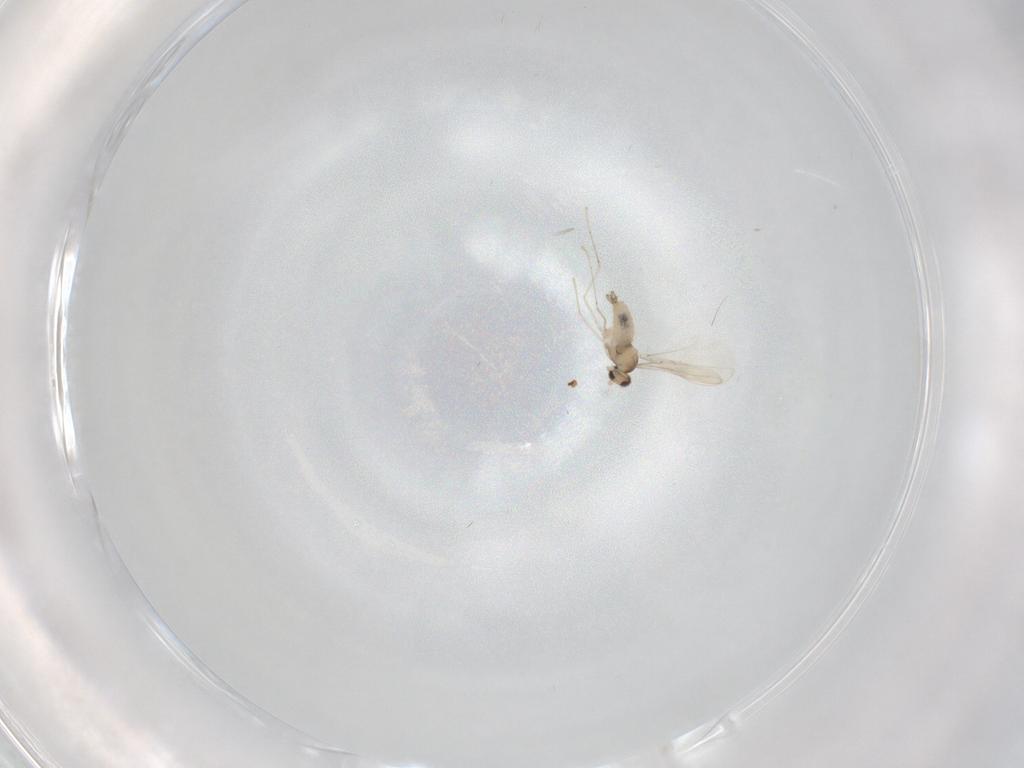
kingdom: Animalia
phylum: Arthropoda
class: Insecta
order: Diptera
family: Cecidomyiidae
